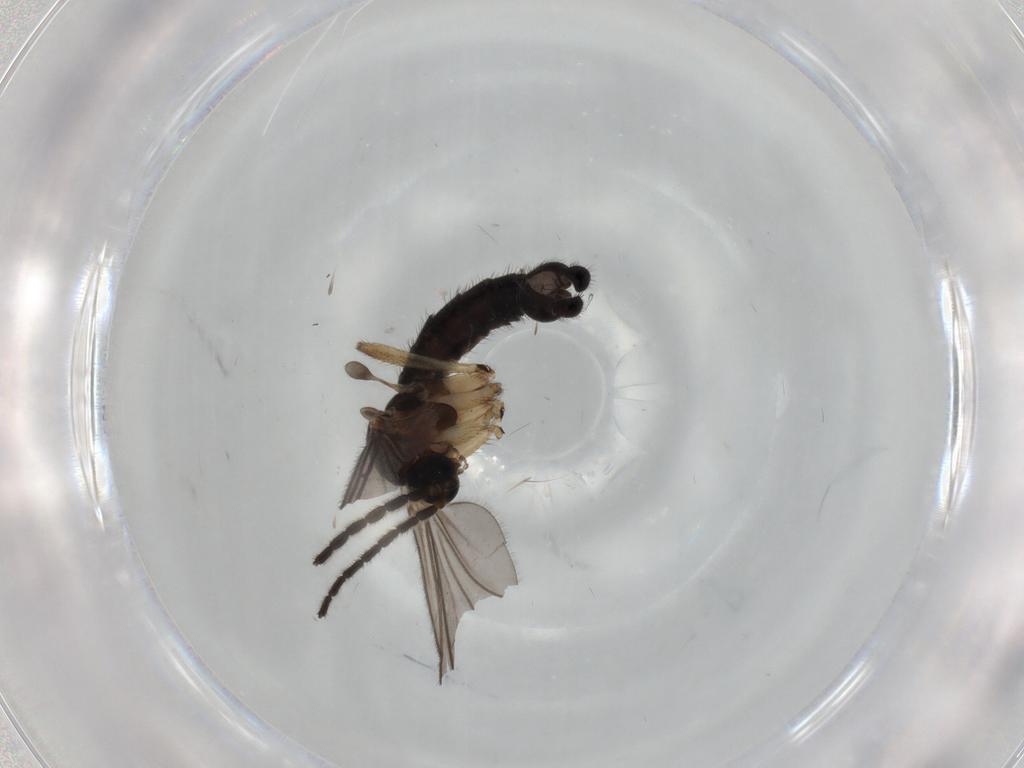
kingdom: Animalia
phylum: Arthropoda
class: Insecta
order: Diptera
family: Sciaridae
